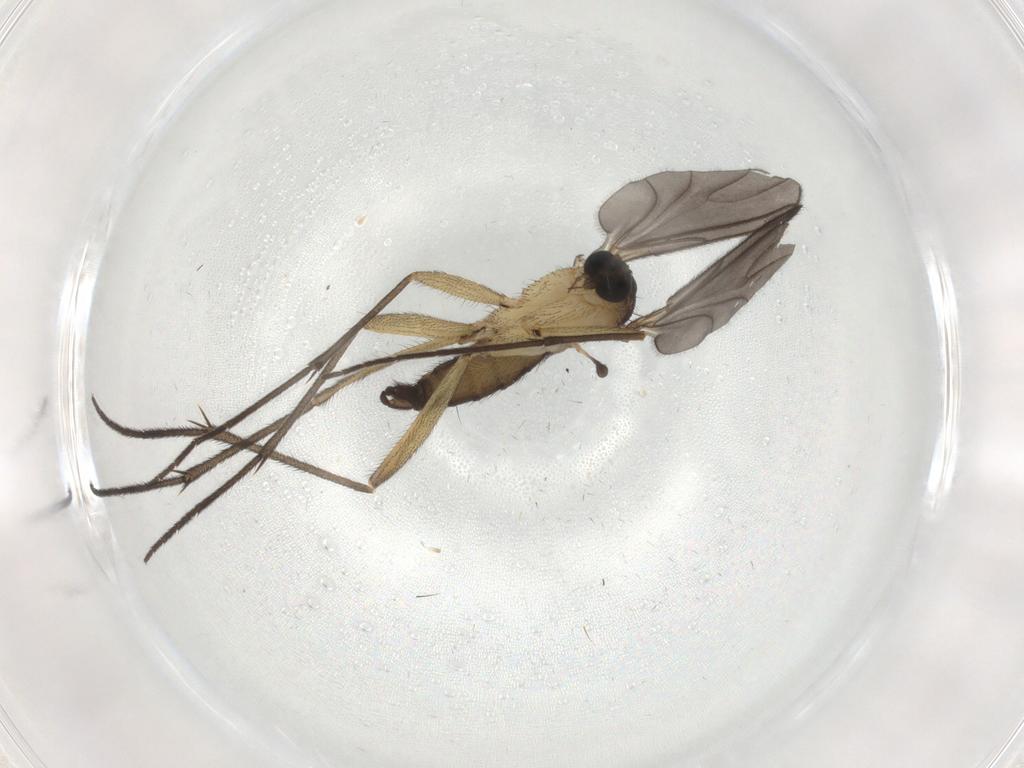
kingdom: Animalia
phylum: Arthropoda
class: Insecta
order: Diptera
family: Sciaridae
